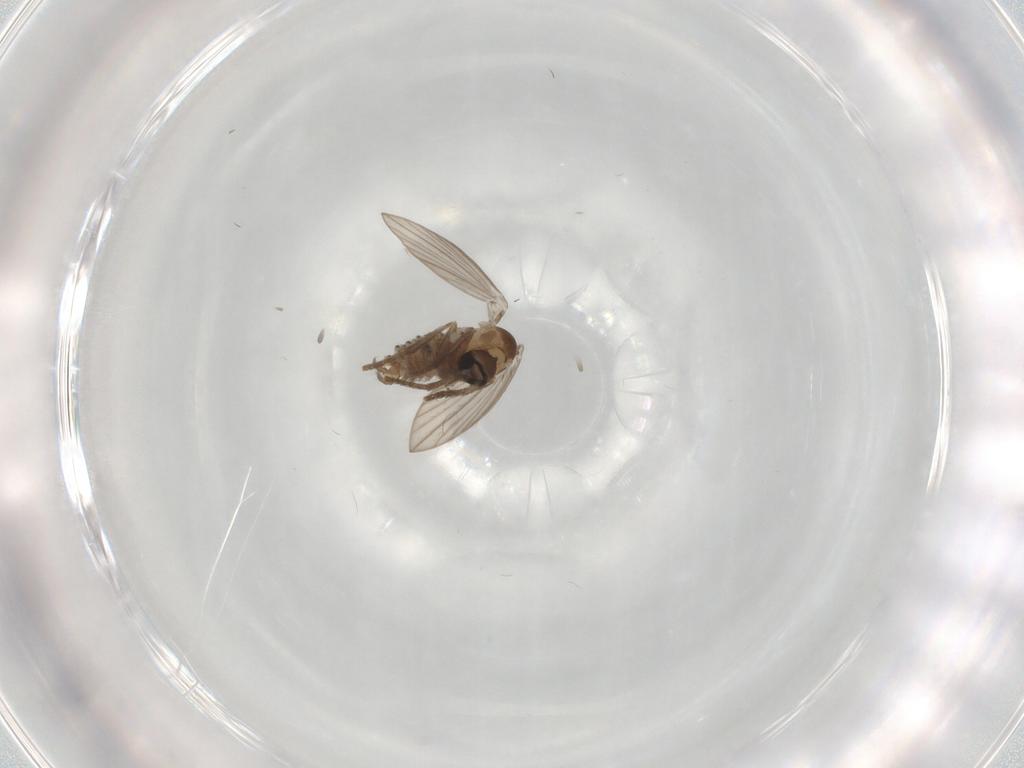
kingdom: Animalia
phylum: Arthropoda
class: Insecta
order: Diptera
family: Psychodidae
